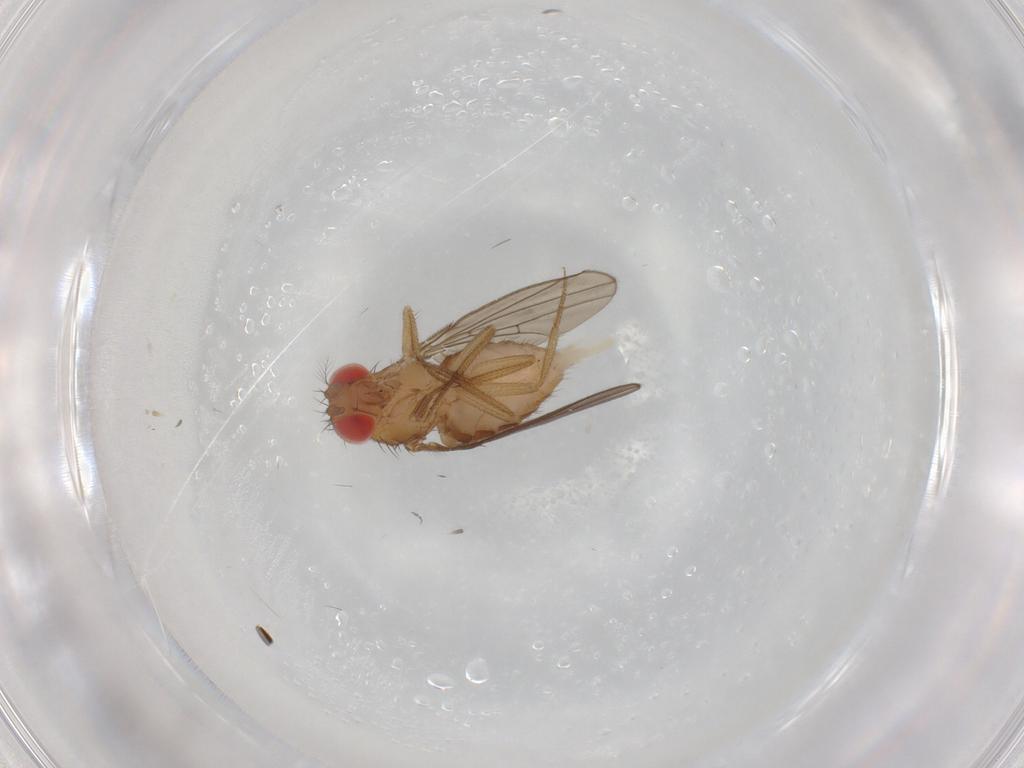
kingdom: Animalia
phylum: Arthropoda
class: Insecta
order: Diptera
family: Drosophilidae
